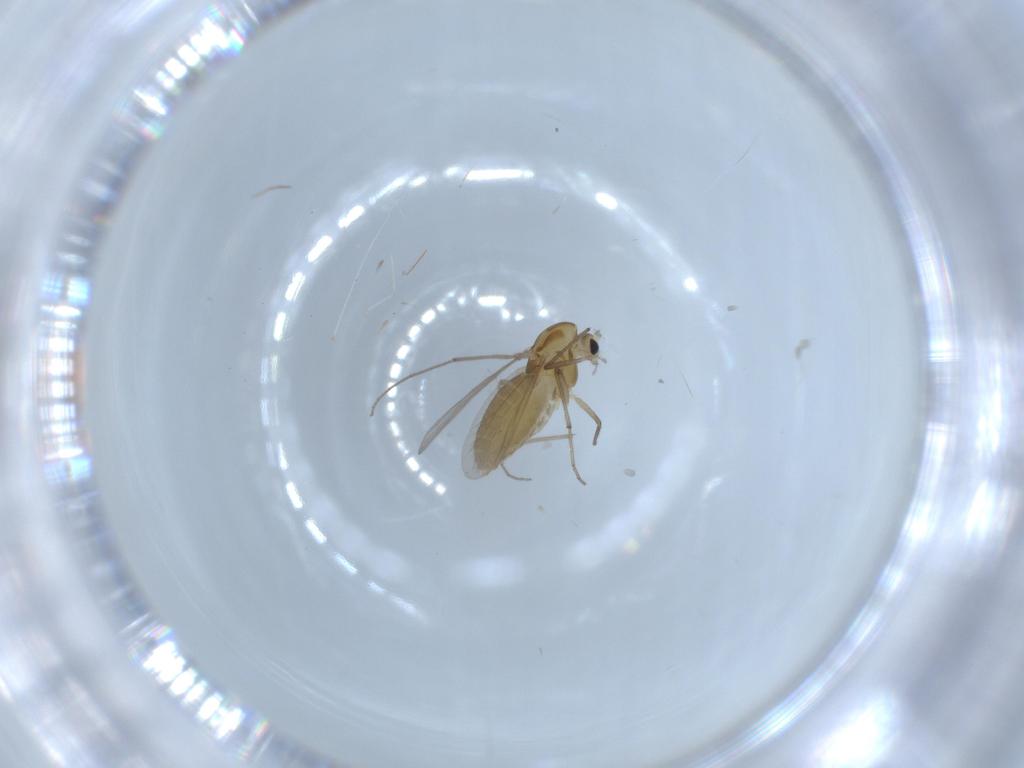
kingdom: Animalia
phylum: Arthropoda
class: Insecta
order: Diptera
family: Chironomidae
